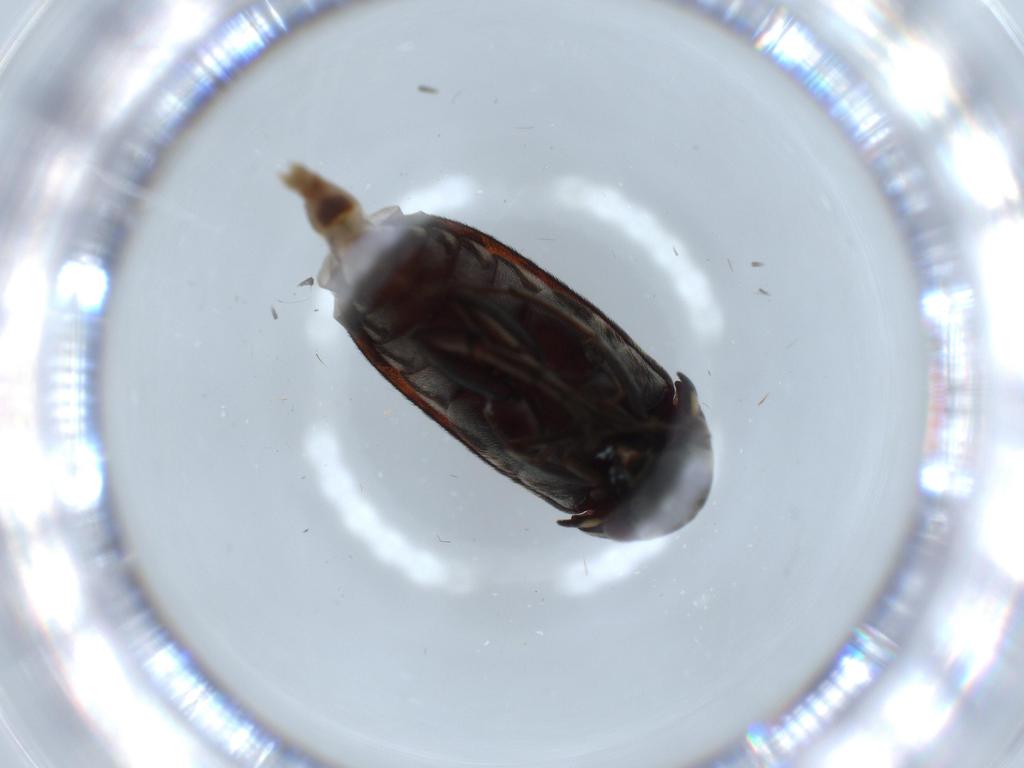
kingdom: Animalia
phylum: Arthropoda
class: Insecta
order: Coleoptera
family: Coccinellidae
